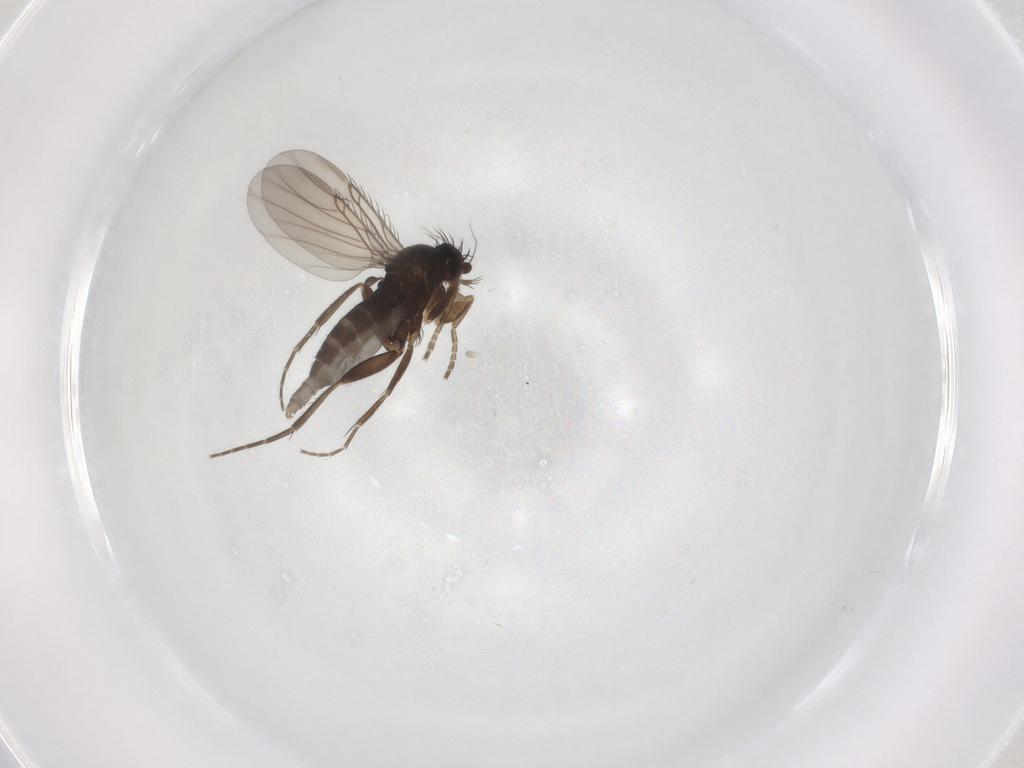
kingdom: Animalia
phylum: Arthropoda
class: Insecta
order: Diptera
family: Phoridae
